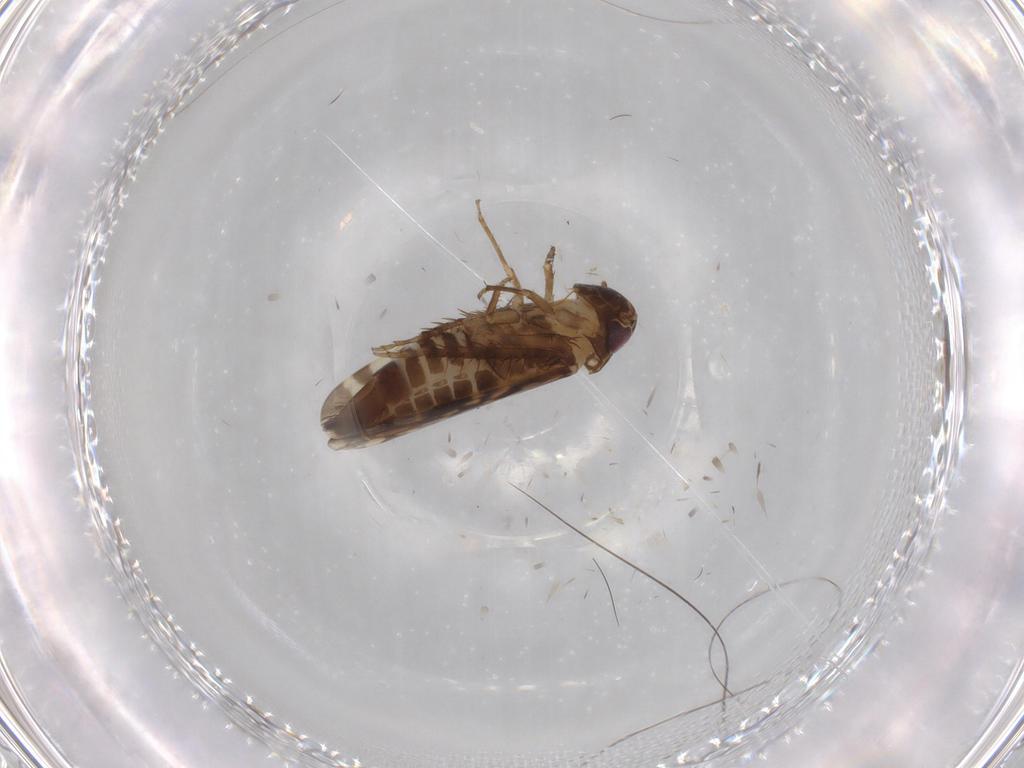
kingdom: Animalia
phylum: Arthropoda
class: Insecta
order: Hemiptera
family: Cicadellidae
